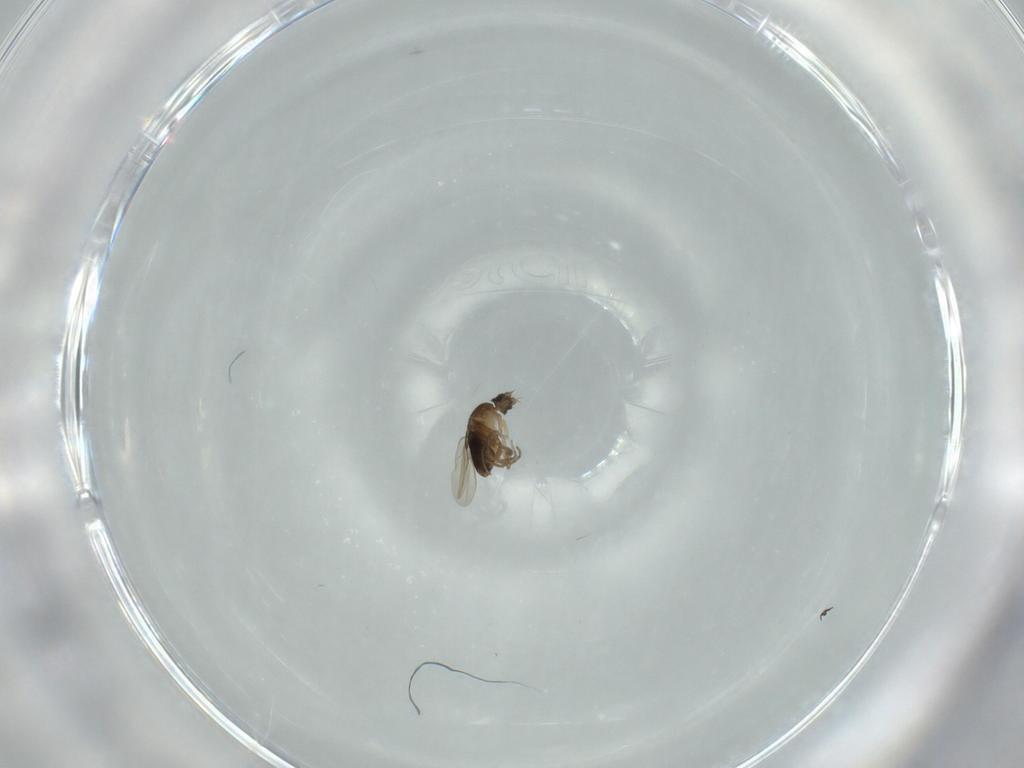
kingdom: Animalia
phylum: Arthropoda
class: Insecta
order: Diptera
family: Phoridae
